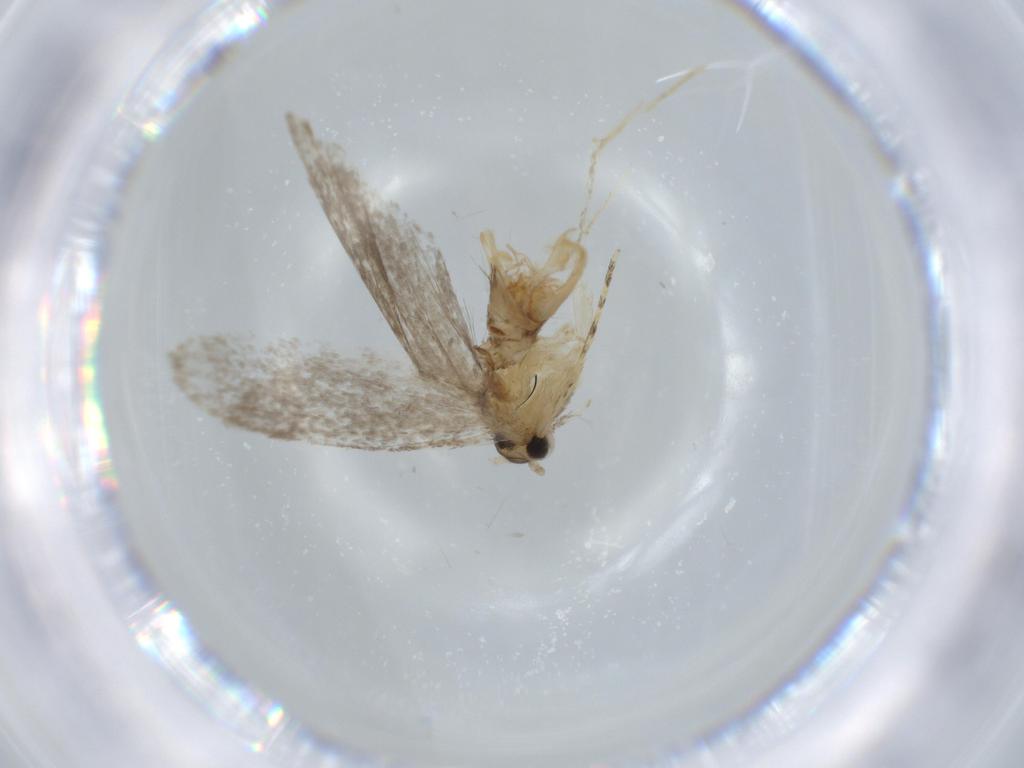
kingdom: Animalia
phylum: Arthropoda
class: Insecta
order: Lepidoptera
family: Tineidae
